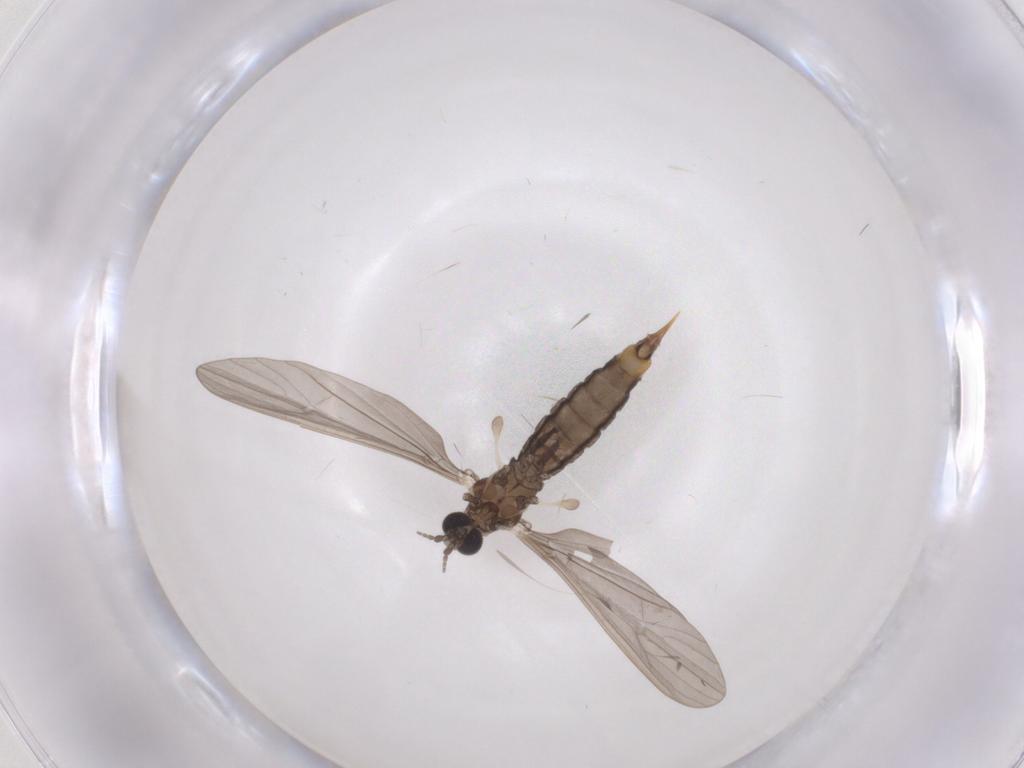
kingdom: Animalia
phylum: Arthropoda
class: Insecta
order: Diptera
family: Limoniidae
